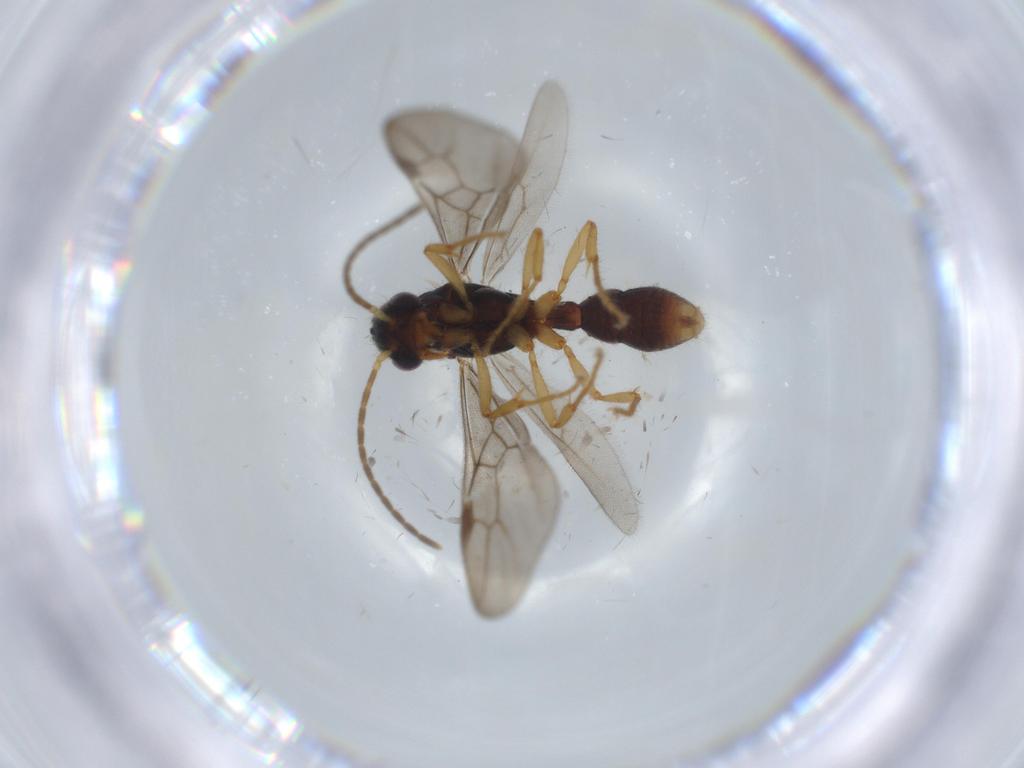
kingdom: Animalia
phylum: Arthropoda
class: Insecta
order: Hymenoptera
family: Formicidae
